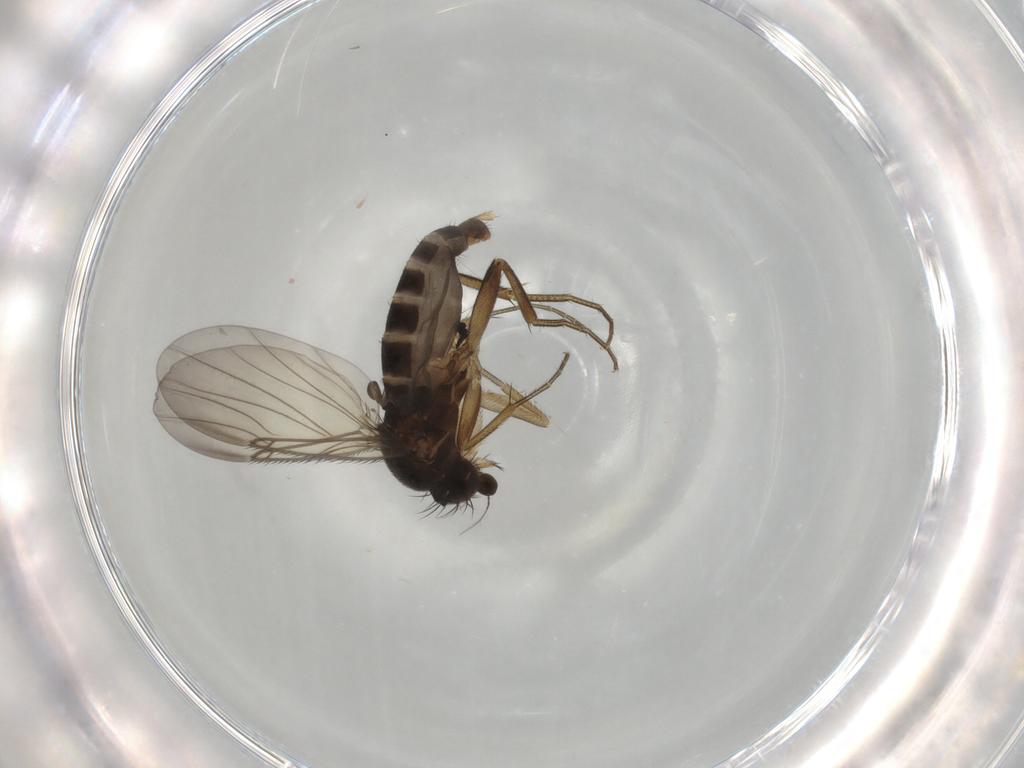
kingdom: Animalia
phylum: Arthropoda
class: Insecta
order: Diptera
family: Phoridae
